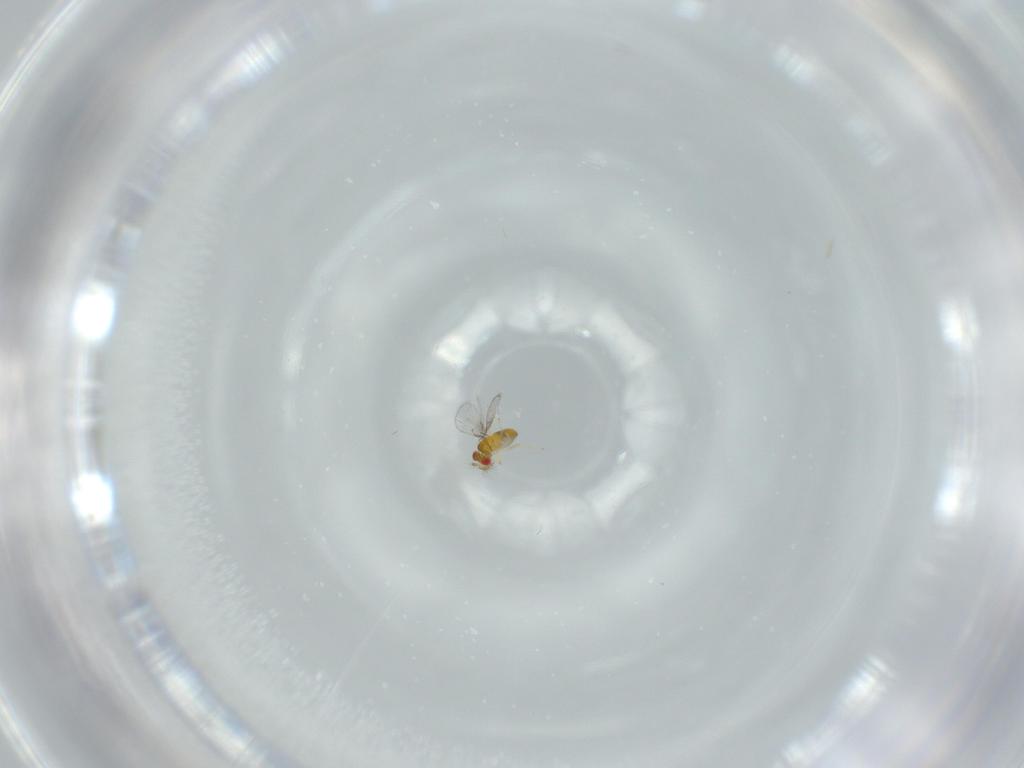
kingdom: Animalia
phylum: Arthropoda
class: Insecta
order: Hymenoptera
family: Trichogrammatidae
